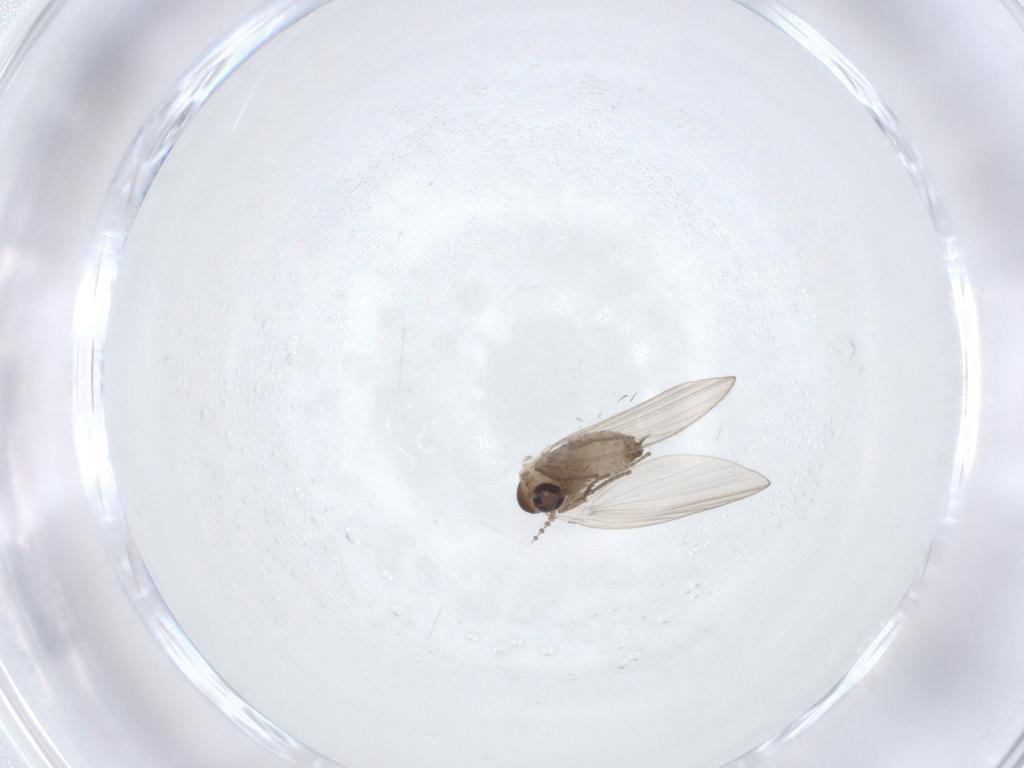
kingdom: Animalia
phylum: Arthropoda
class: Insecta
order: Diptera
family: Psychodidae
